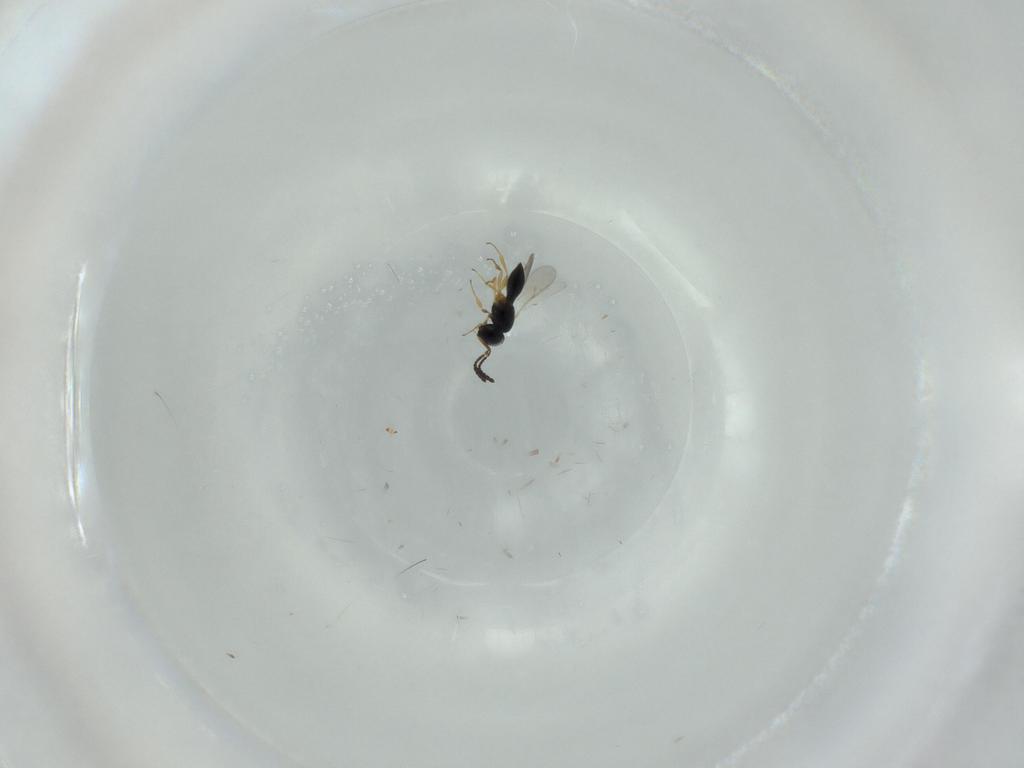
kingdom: Animalia
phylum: Arthropoda
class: Insecta
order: Hymenoptera
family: Scelionidae
